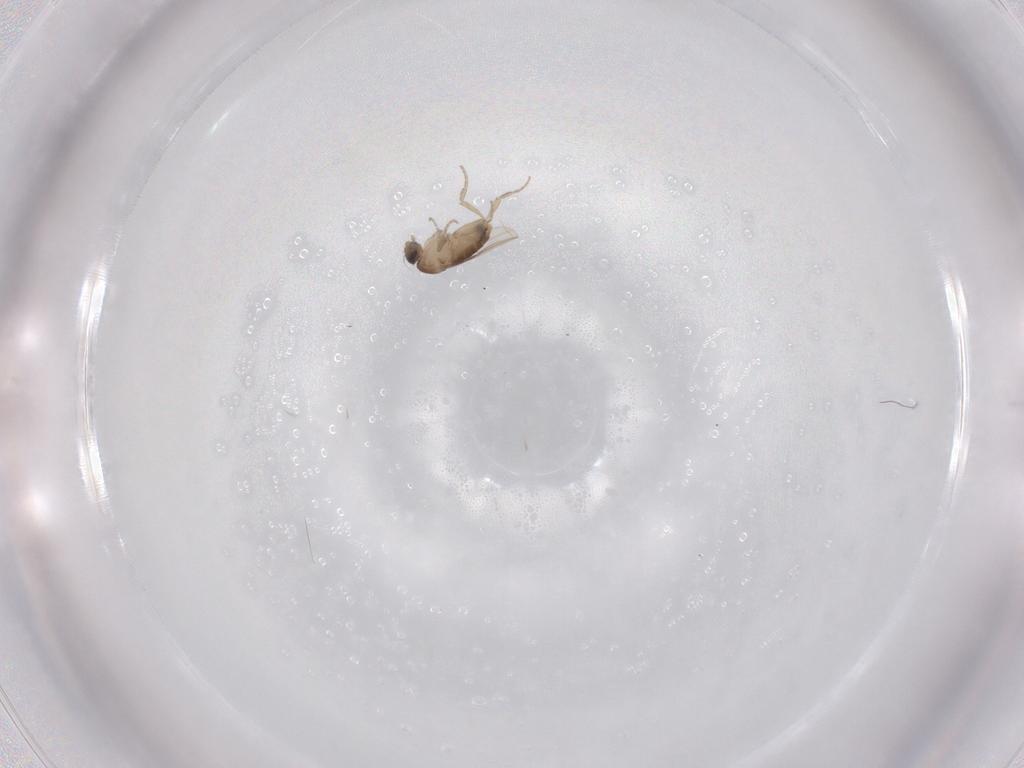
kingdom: Animalia
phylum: Arthropoda
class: Insecta
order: Diptera
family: Phoridae
